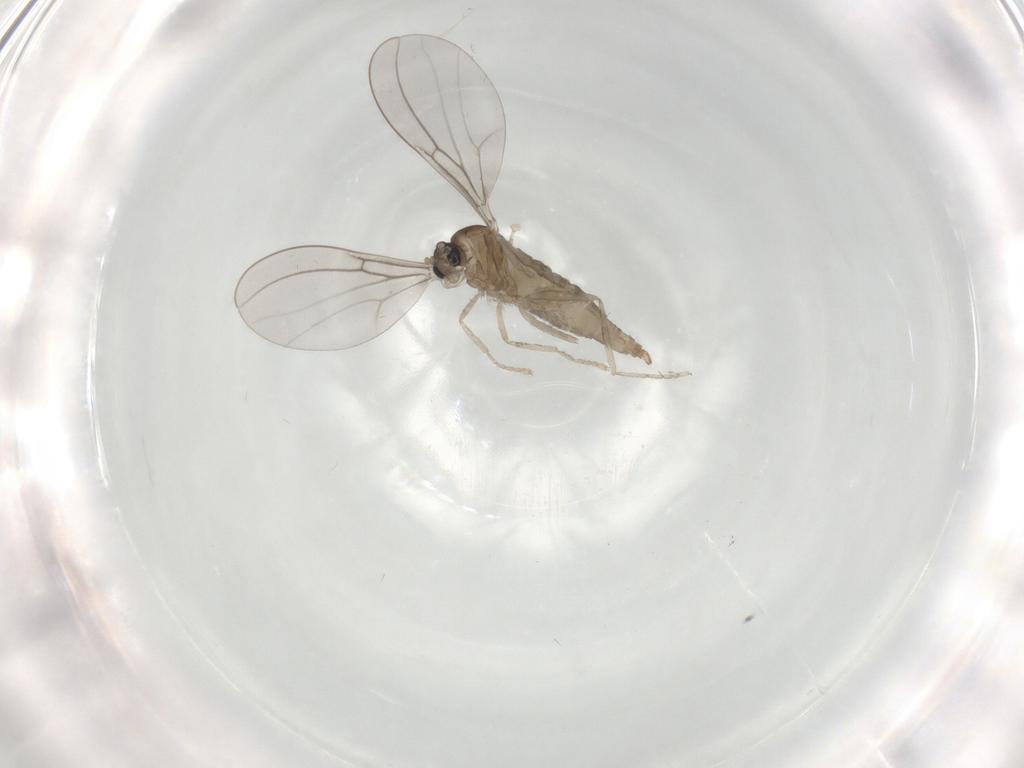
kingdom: Animalia
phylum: Arthropoda
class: Insecta
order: Diptera
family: Cecidomyiidae
